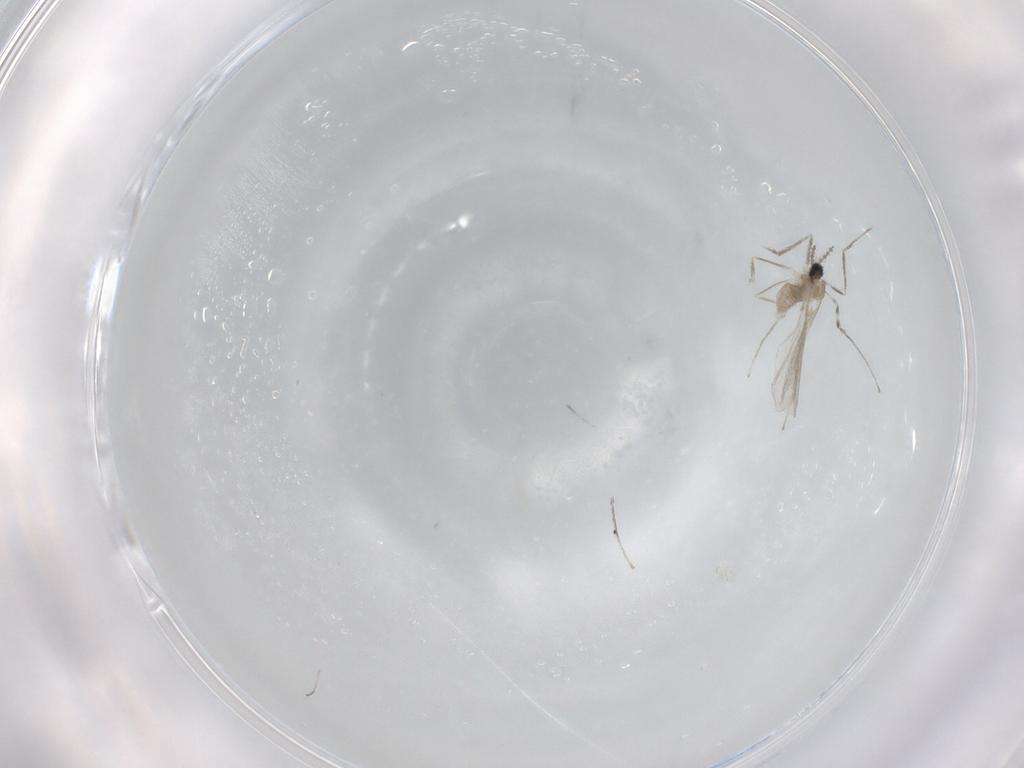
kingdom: Animalia
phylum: Arthropoda
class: Insecta
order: Diptera
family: Cecidomyiidae
